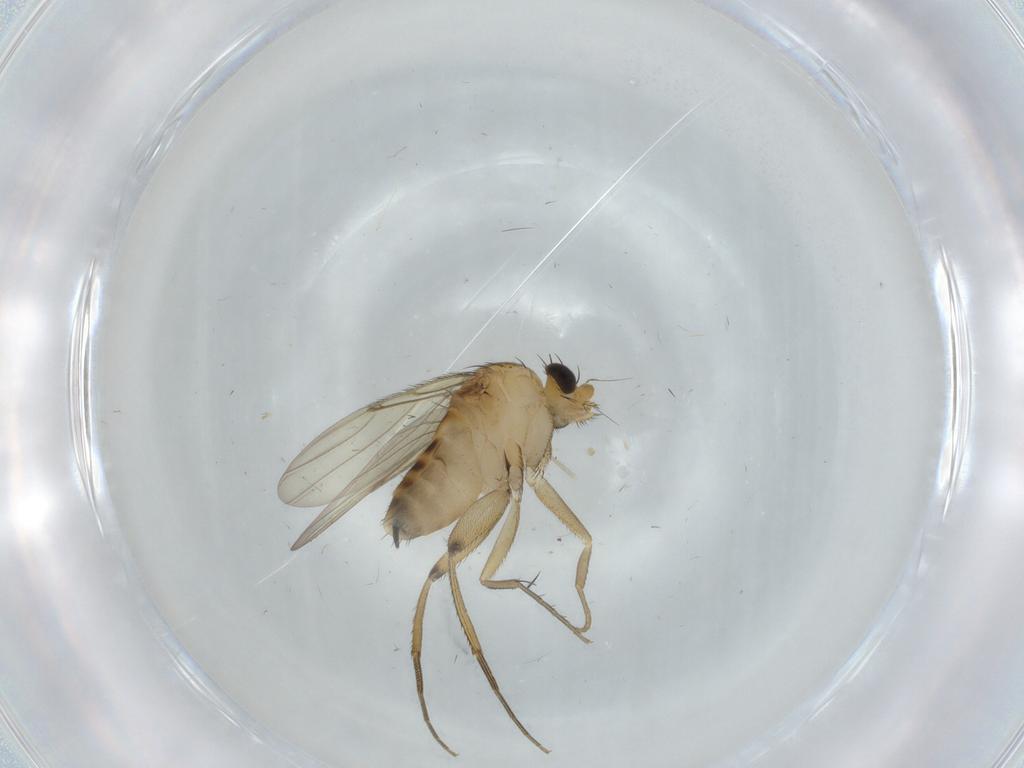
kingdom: Animalia
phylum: Arthropoda
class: Insecta
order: Diptera
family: Phoridae
